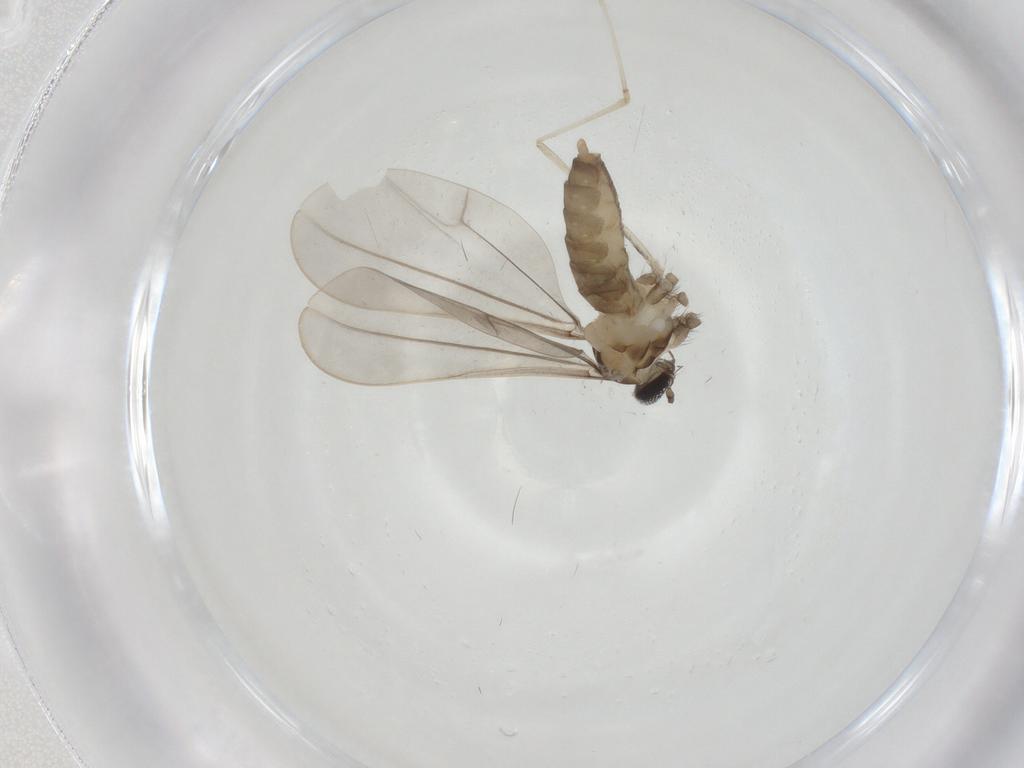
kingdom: Animalia
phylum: Arthropoda
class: Insecta
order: Diptera
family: Cecidomyiidae
